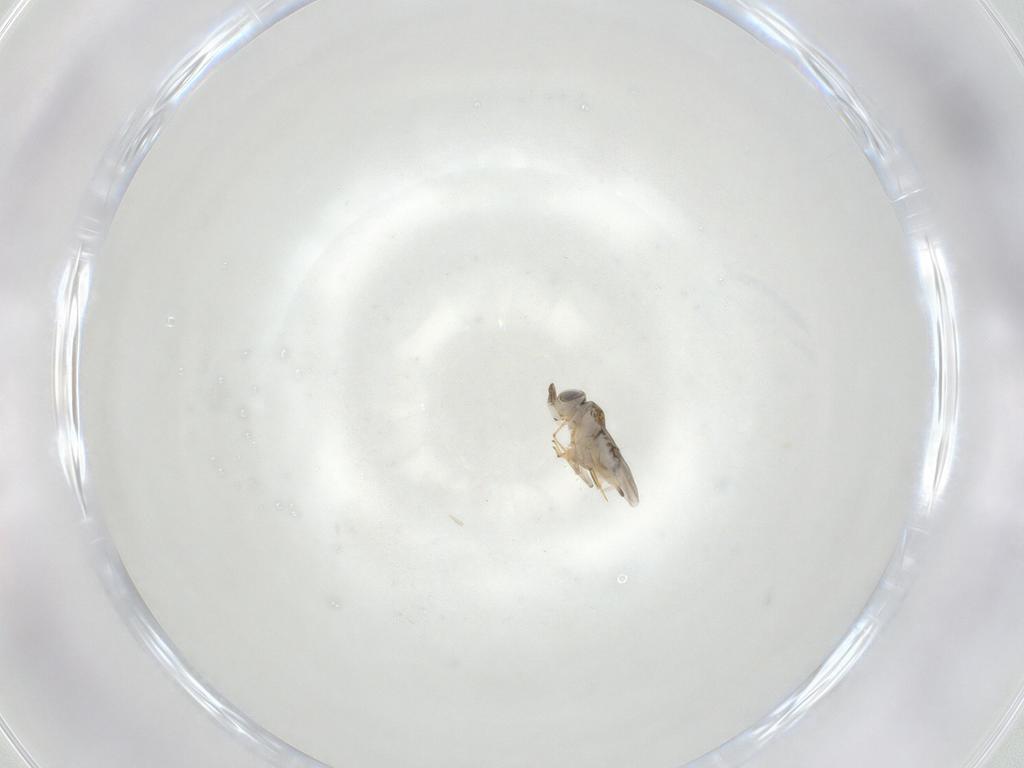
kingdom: Animalia
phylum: Arthropoda
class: Insecta
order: Hymenoptera
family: Encyrtidae
